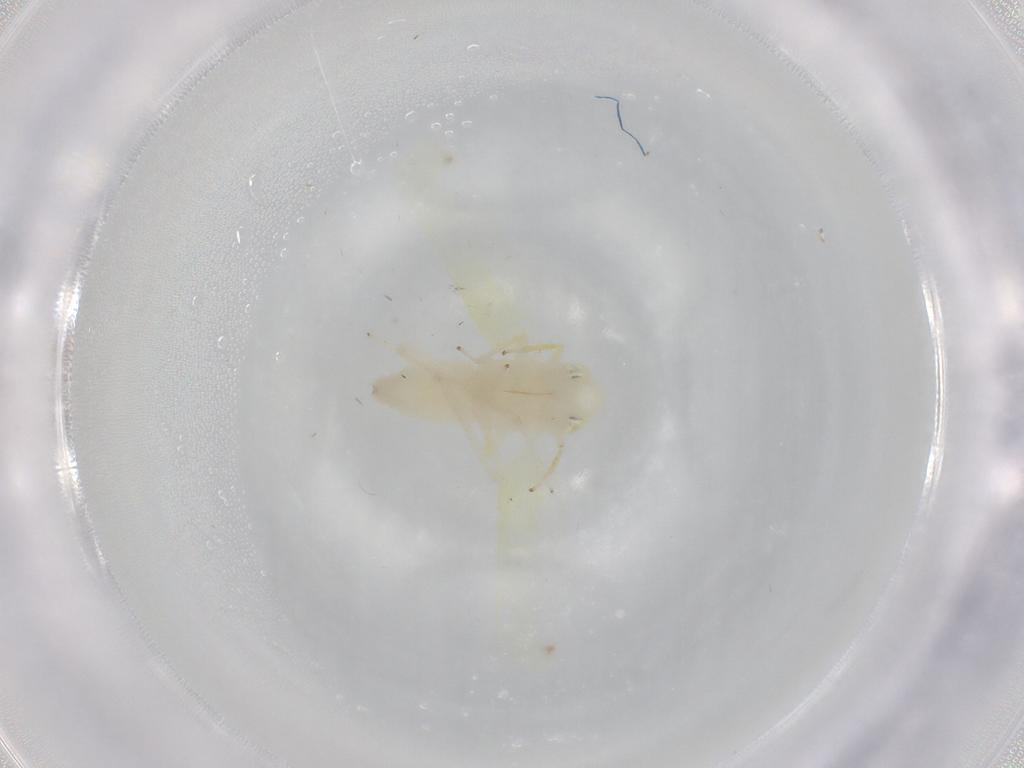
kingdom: Animalia
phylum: Arthropoda
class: Insecta
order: Hemiptera
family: Cicadellidae
